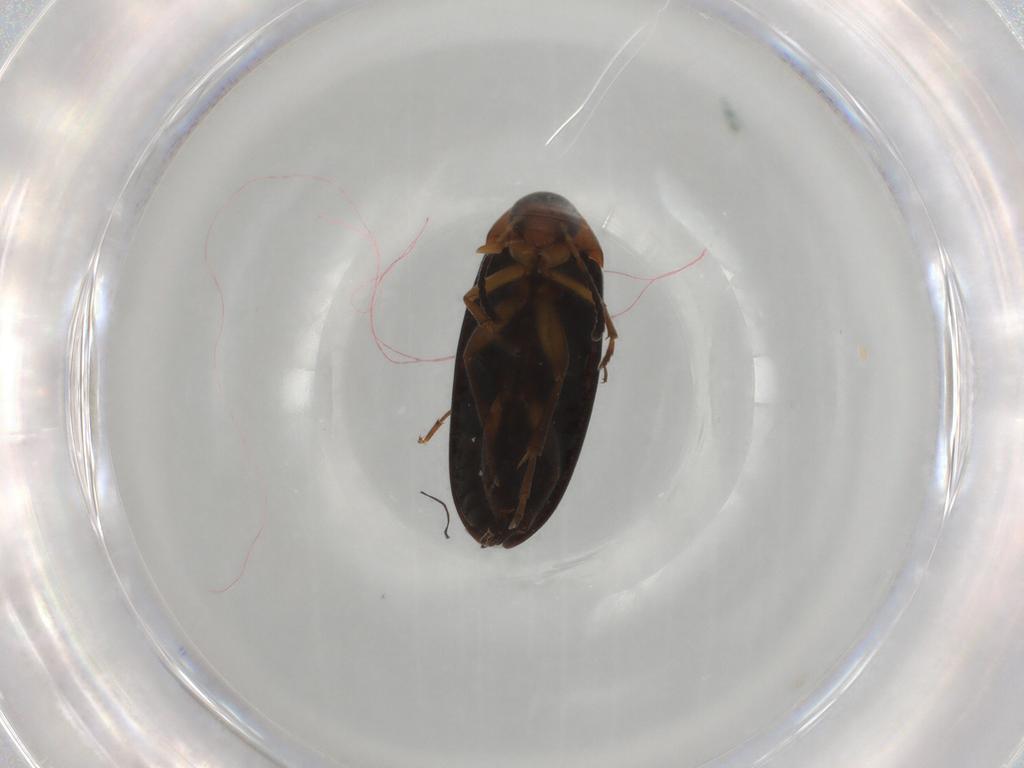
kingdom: Animalia
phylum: Arthropoda
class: Insecta
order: Coleoptera
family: Scraptiidae
